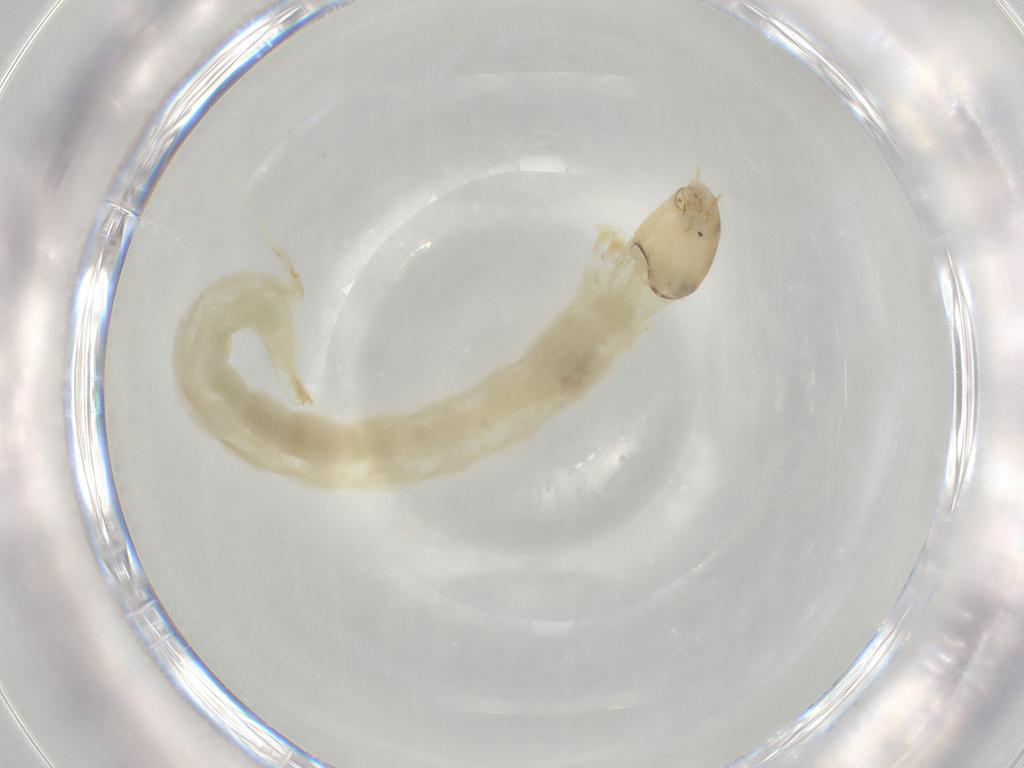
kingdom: Animalia
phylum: Arthropoda
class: Insecta
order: Diptera
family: Chironomidae
